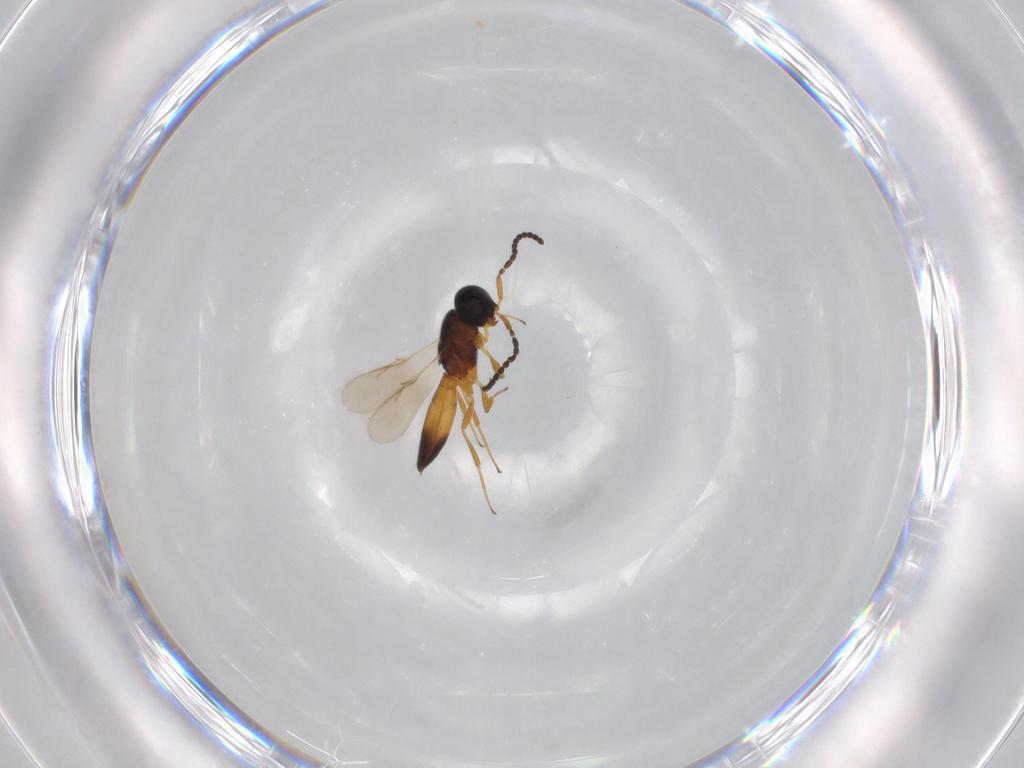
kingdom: Animalia
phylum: Arthropoda
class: Insecta
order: Hymenoptera
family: Scelionidae
